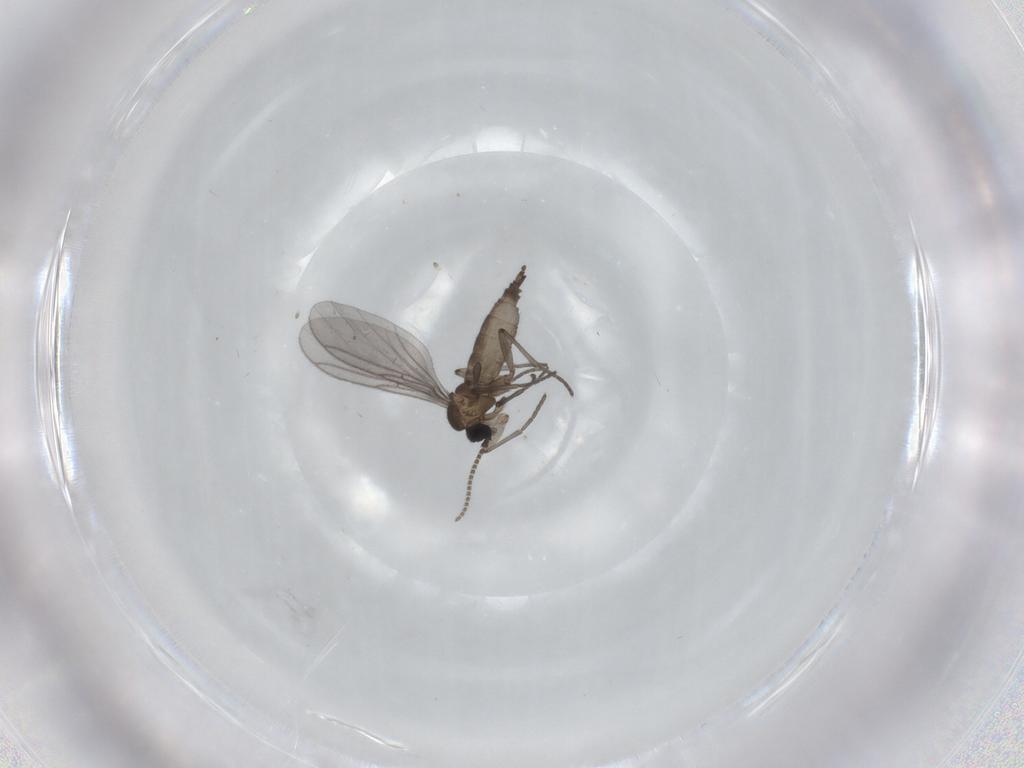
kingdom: Animalia
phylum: Arthropoda
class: Insecta
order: Diptera
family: Sciaridae
